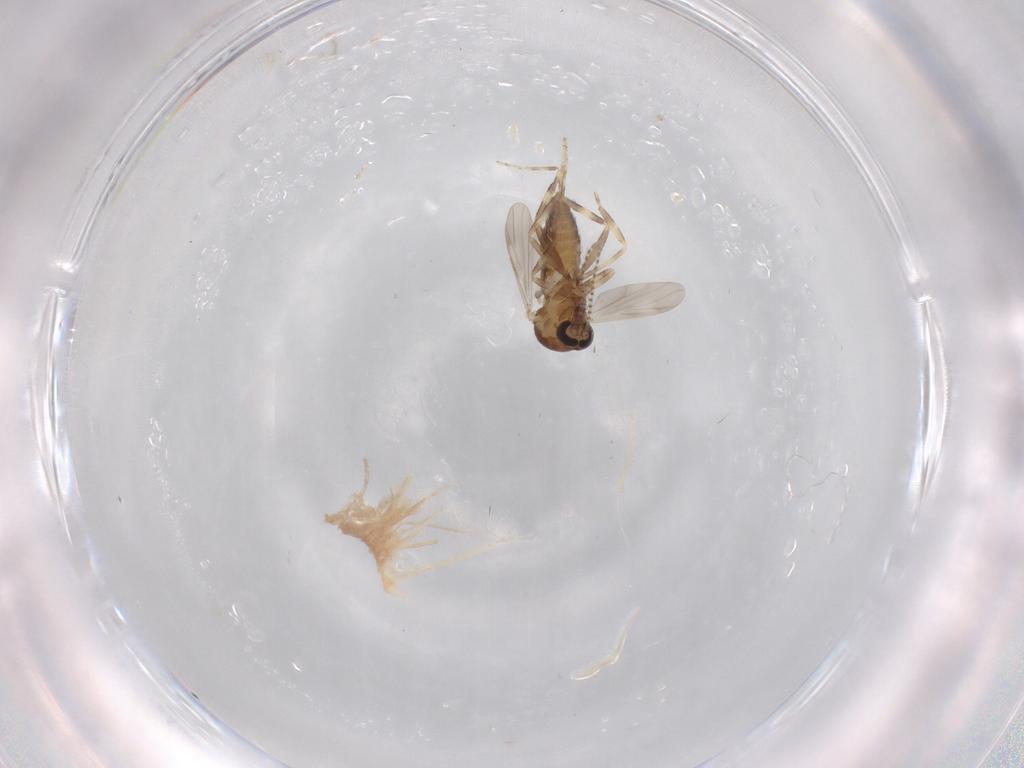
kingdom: Animalia
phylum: Arthropoda
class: Insecta
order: Diptera
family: Ceratopogonidae
